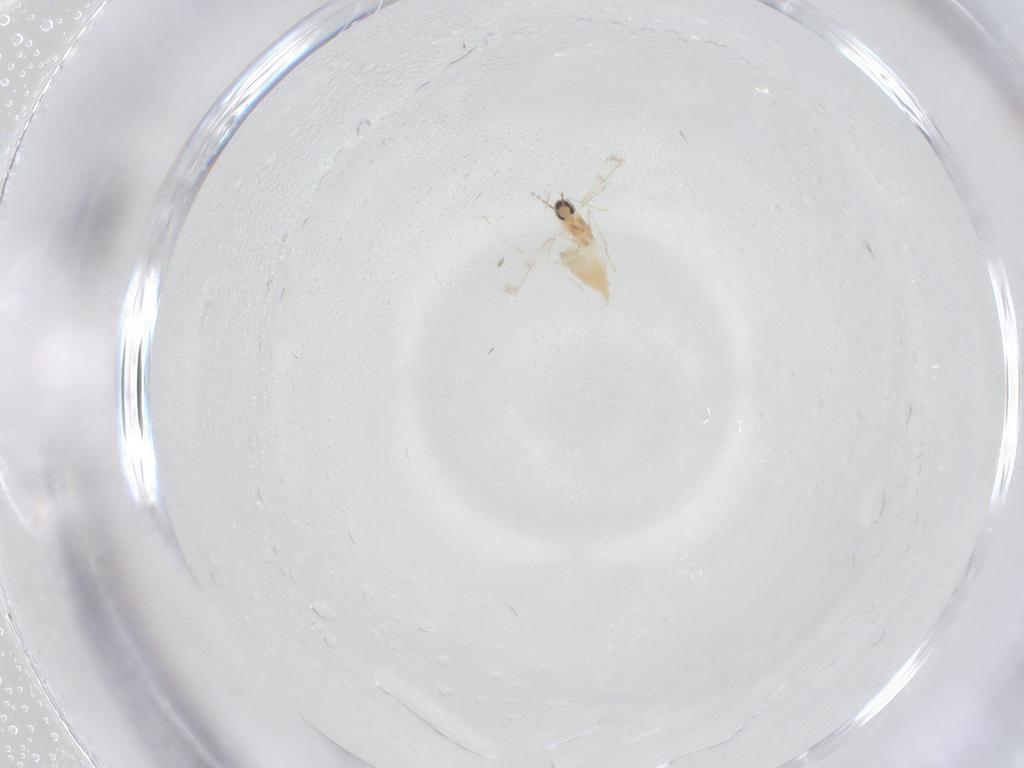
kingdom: Animalia
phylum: Arthropoda
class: Insecta
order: Diptera
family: Cecidomyiidae
